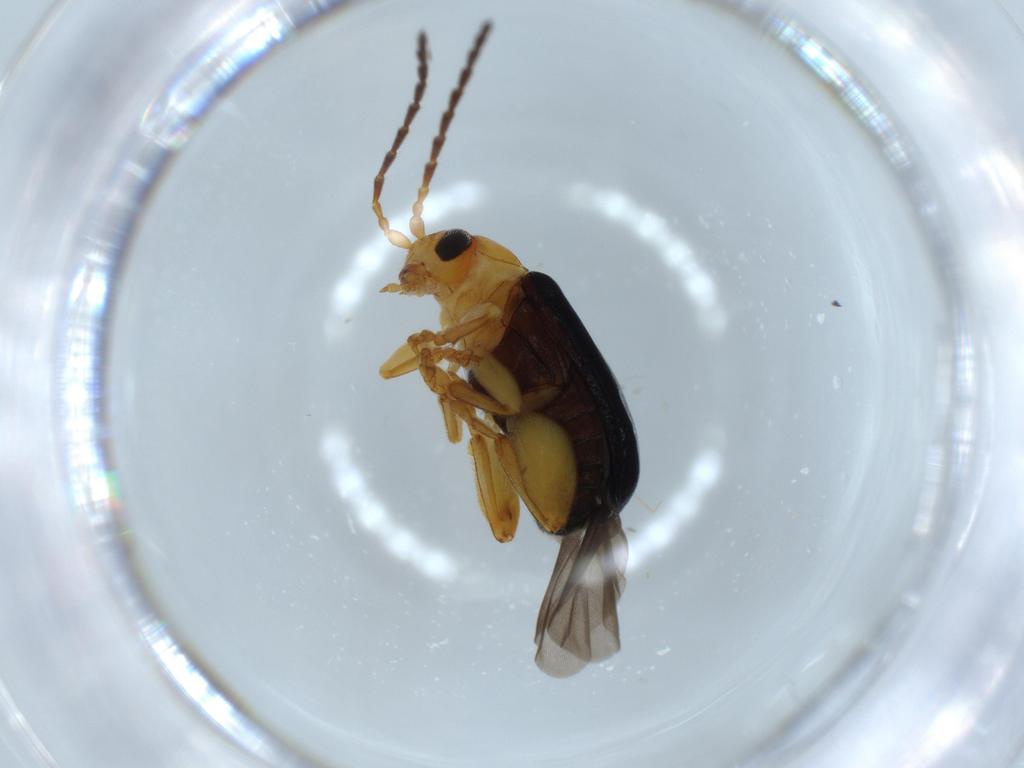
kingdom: Animalia
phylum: Arthropoda
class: Insecta
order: Coleoptera
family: Chrysomelidae
